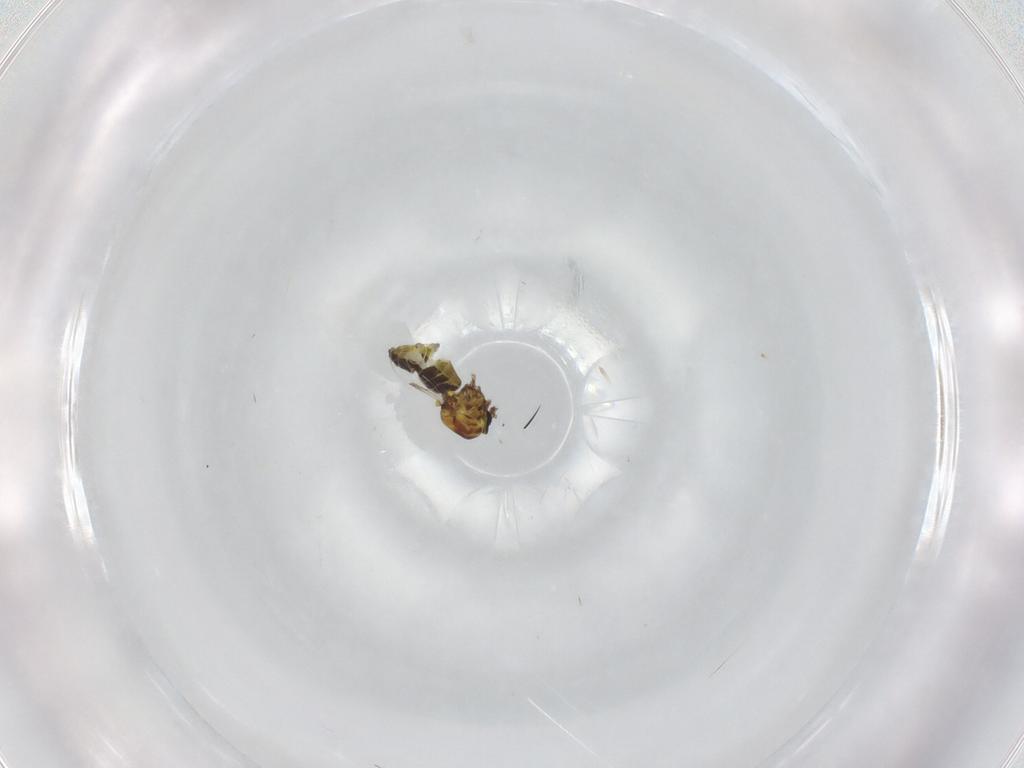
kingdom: Animalia
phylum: Arthropoda
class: Insecta
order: Diptera
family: Ceratopogonidae
